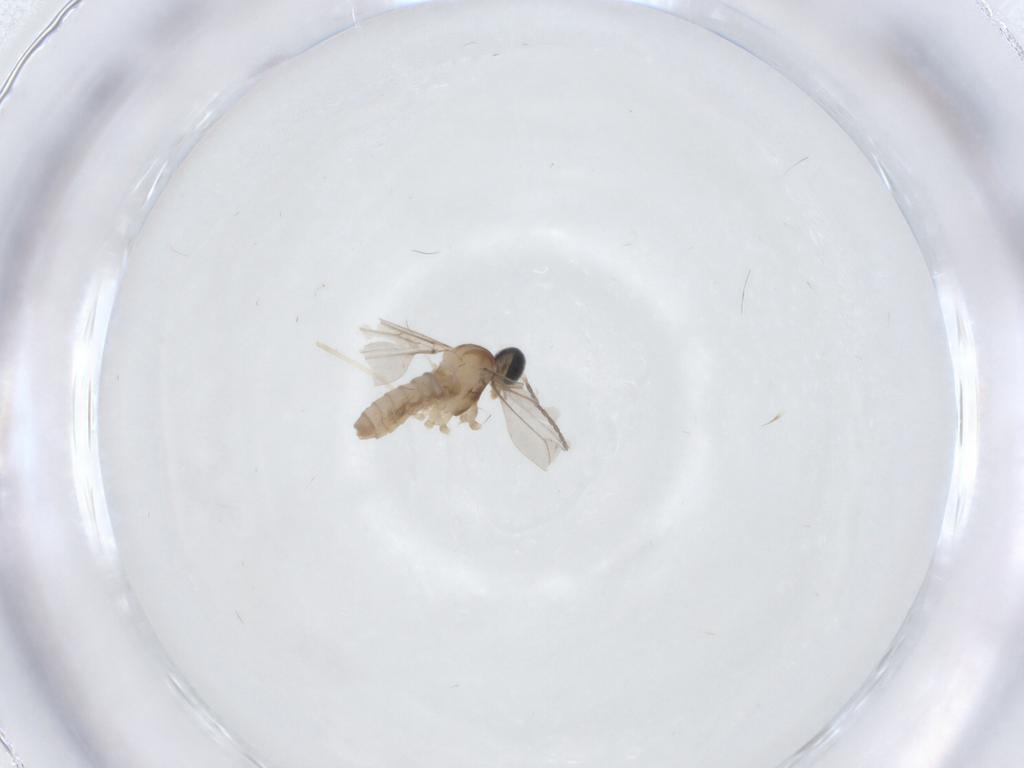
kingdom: Animalia
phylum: Arthropoda
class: Insecta
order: Diptera
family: Cecidomyiidae
